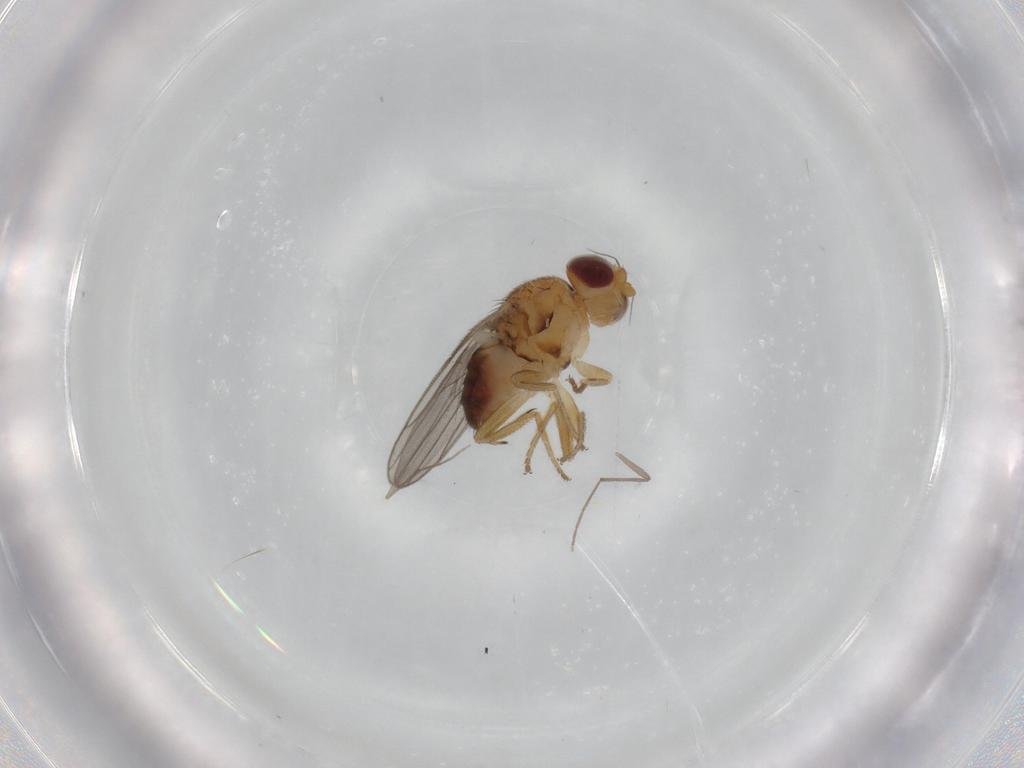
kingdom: Animalia
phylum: Arthropoda
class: Insecta
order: Diptera
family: Chloropidae
